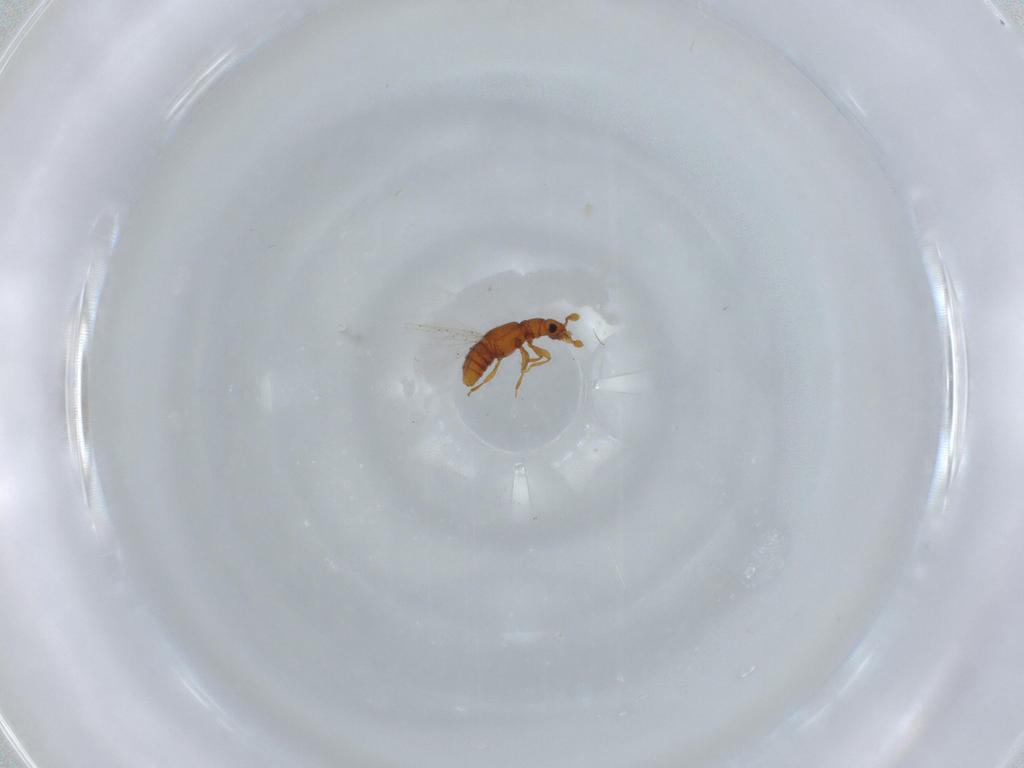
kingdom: Animalia
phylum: Arthropoda
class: Insecta
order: Coleoptera
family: Staphylinidae
